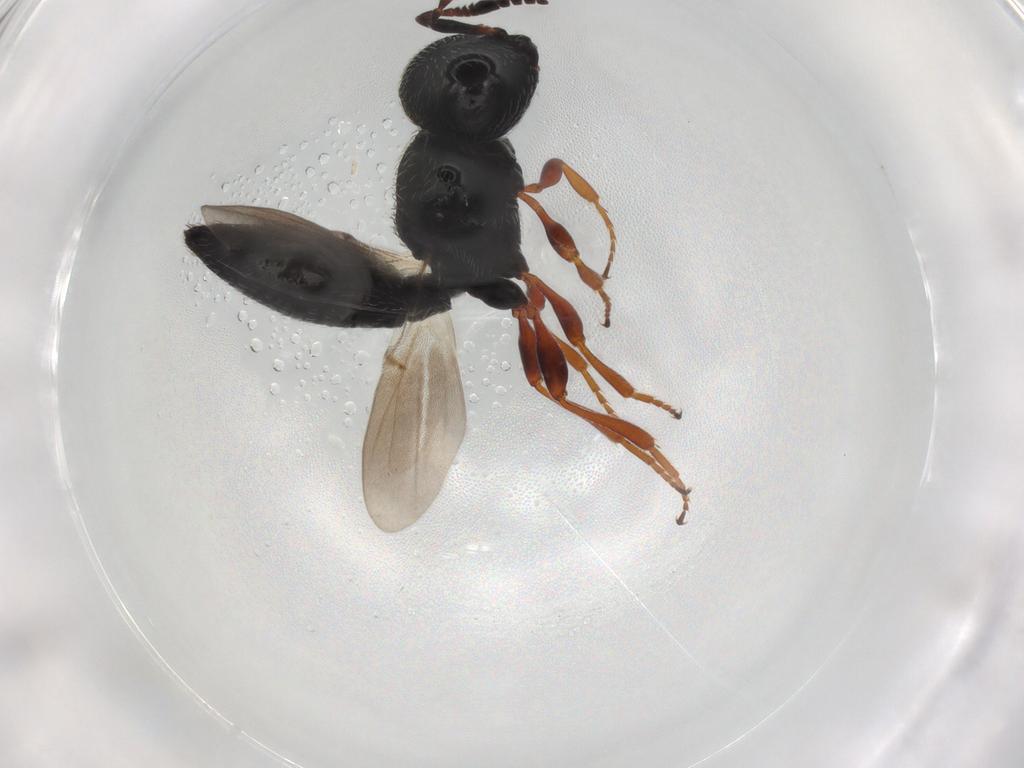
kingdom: Animalia
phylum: Arthropoda
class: Insecta
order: Hymenoptera
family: Scelionidae
